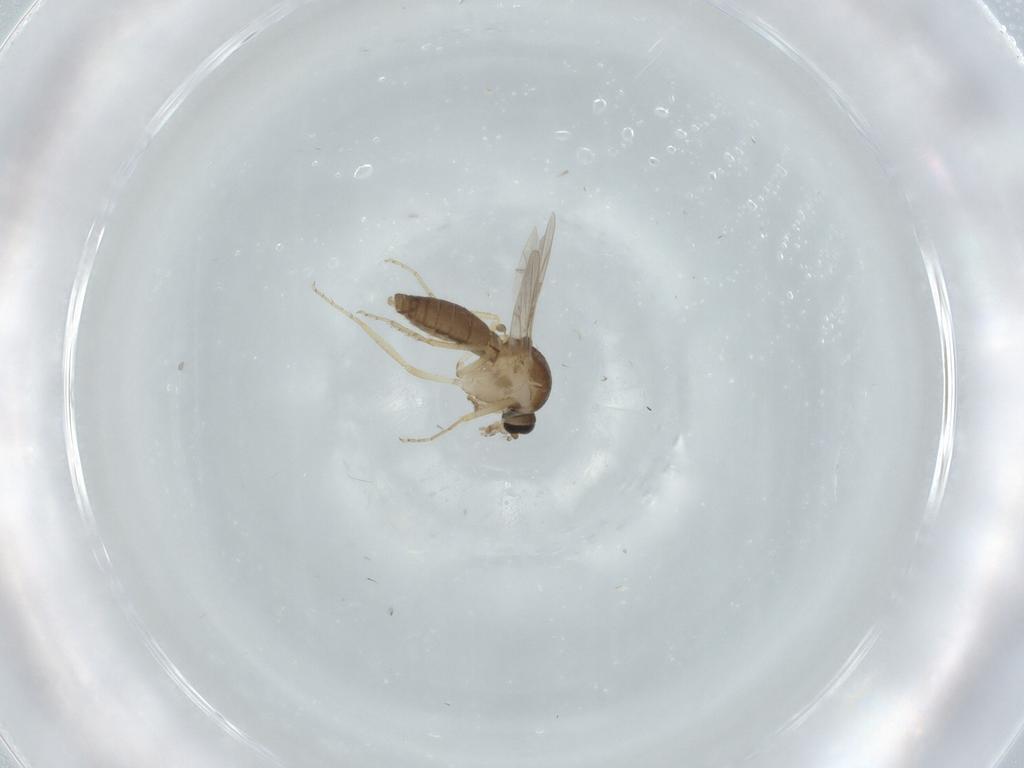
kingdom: Animalia
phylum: Arthropoda
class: Insecta
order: Diptera
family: Ceratopogonidae
